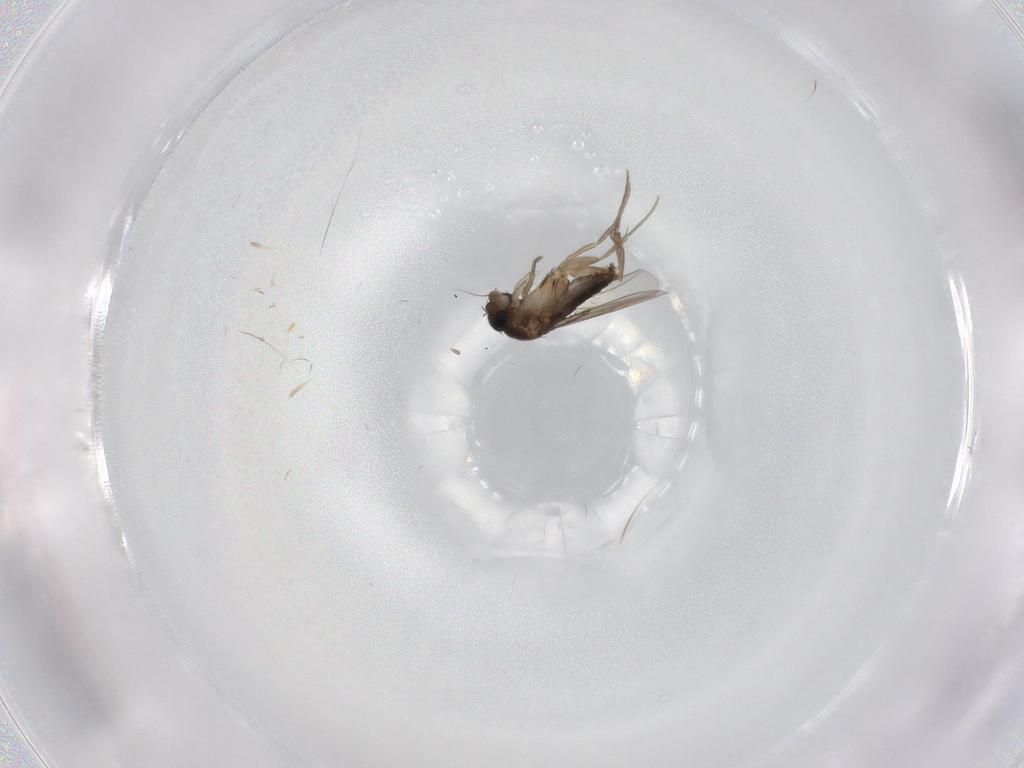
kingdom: Animalia
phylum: Arthropoda
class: Insecta
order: Diptera
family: Phoridae
